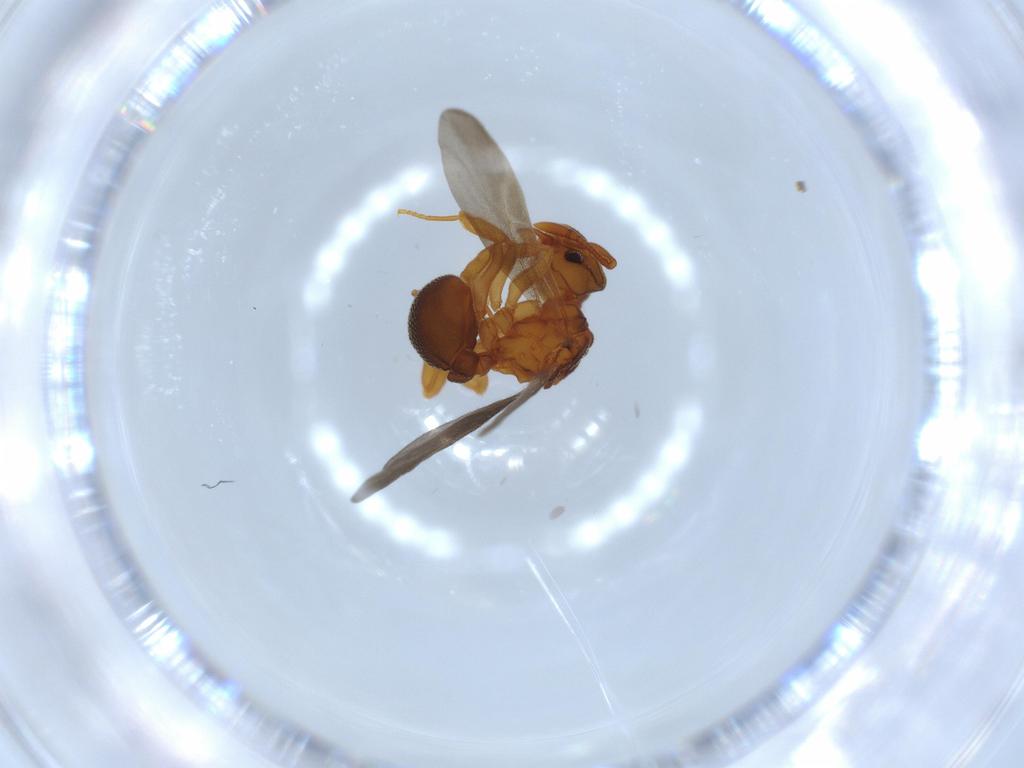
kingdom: Animalia
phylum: Arthropoda
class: Insecta
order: Hymenoptera
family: Formicidae
